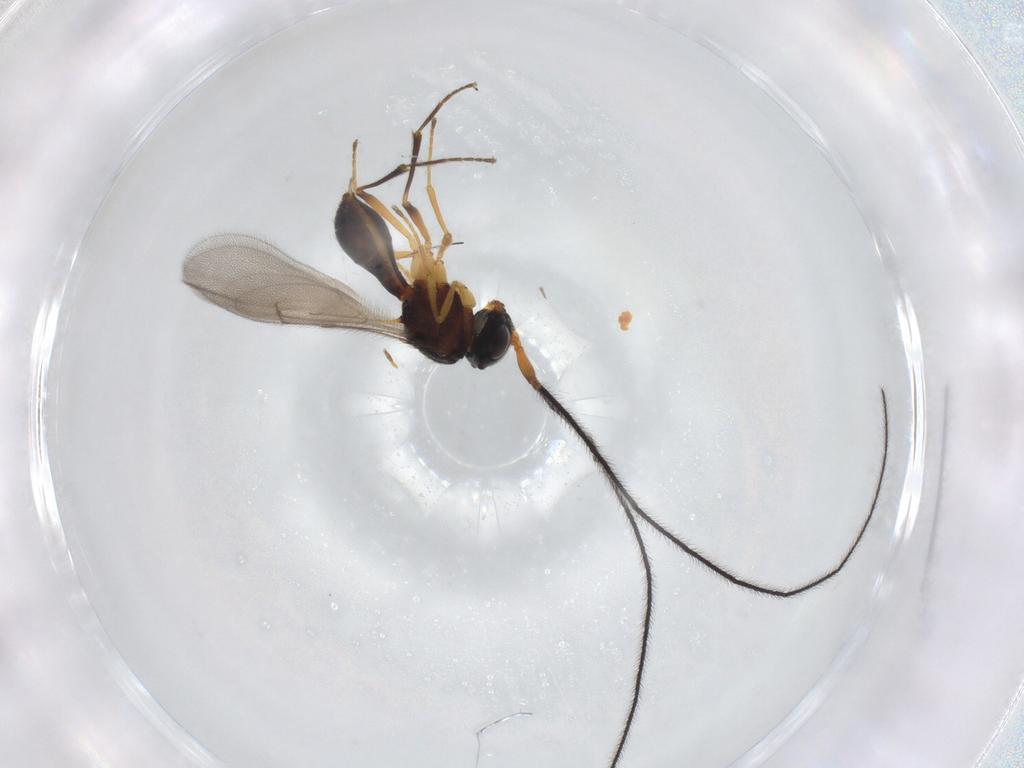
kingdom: Animalia
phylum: Arthropoda
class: Insecta
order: Hymenoptera
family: Scelionidae
